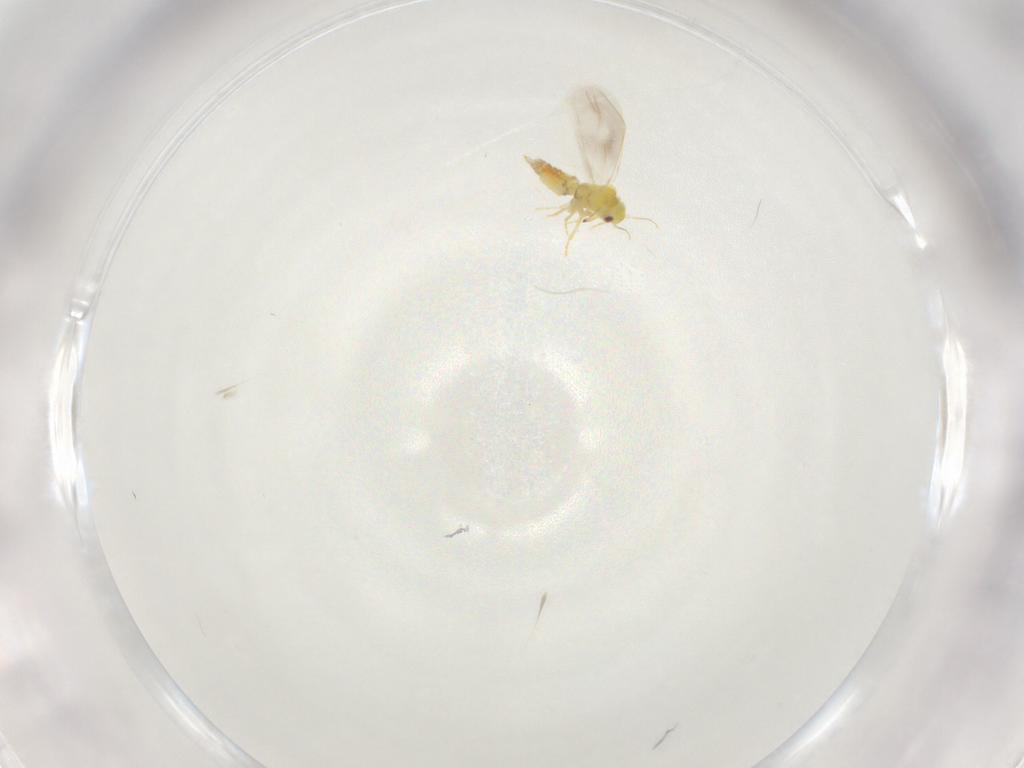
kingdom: Animalia
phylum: Arthropoda
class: Insecta
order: Hemiptera
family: Aleyrodidae
